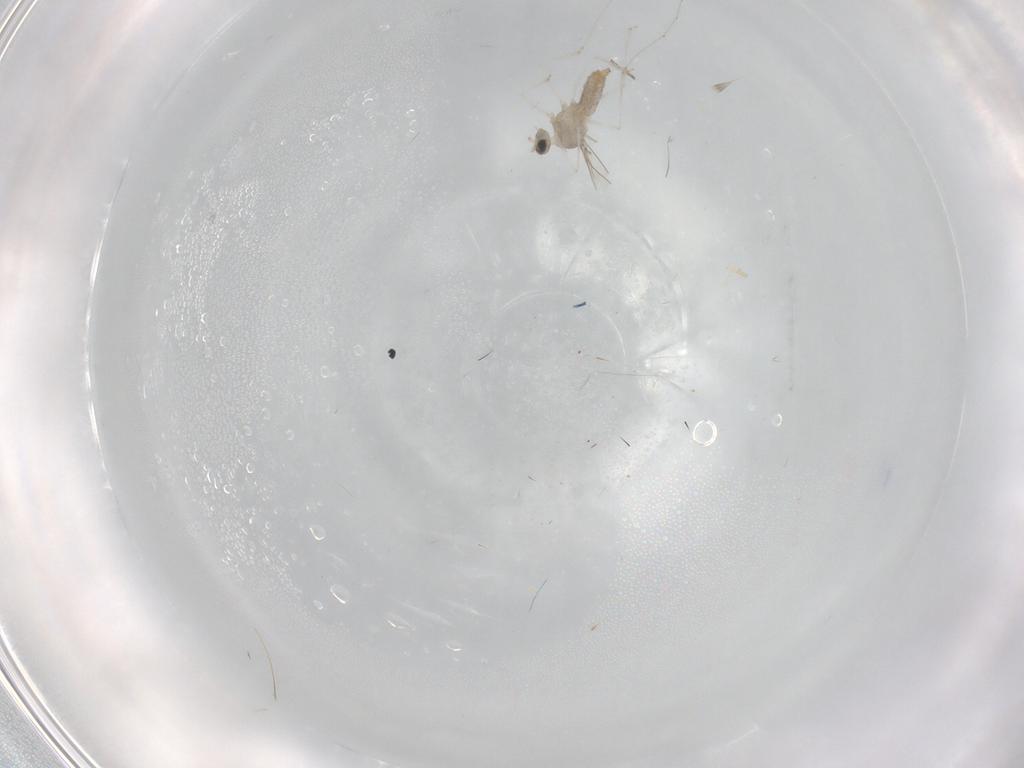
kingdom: Animalia
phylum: Arthropoda
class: Insecta
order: Diptera
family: Cecidomyiidae
